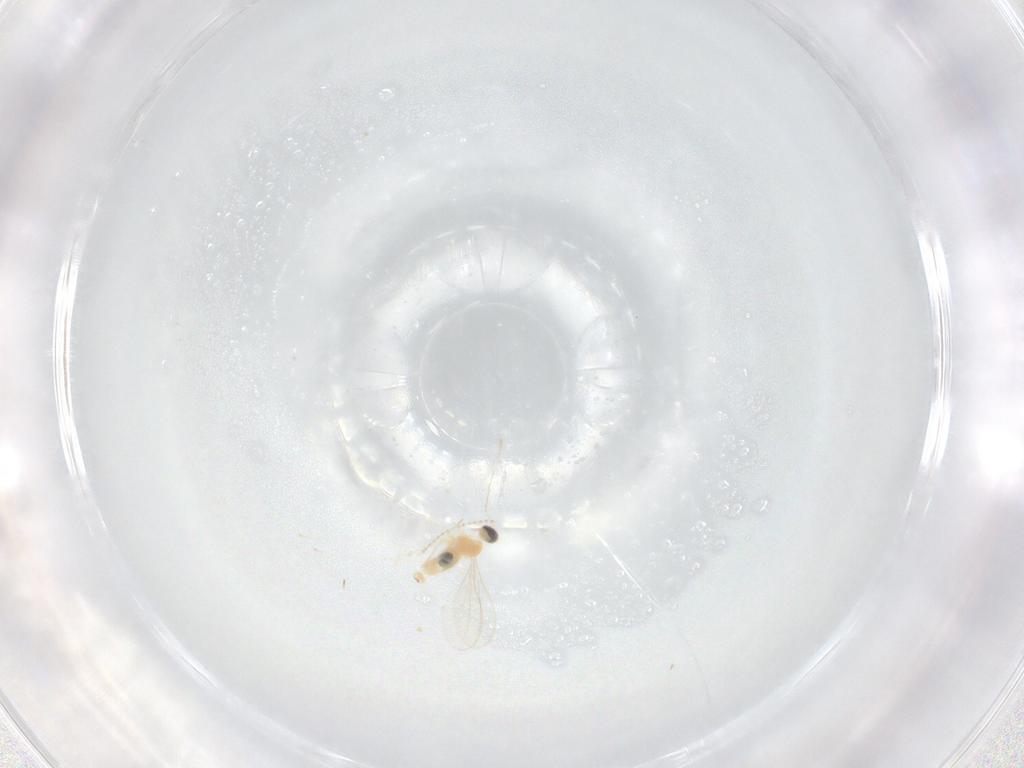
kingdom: Animalia
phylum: Arthropoda
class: Insecta
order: Diptera
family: Cecidomyiidae
